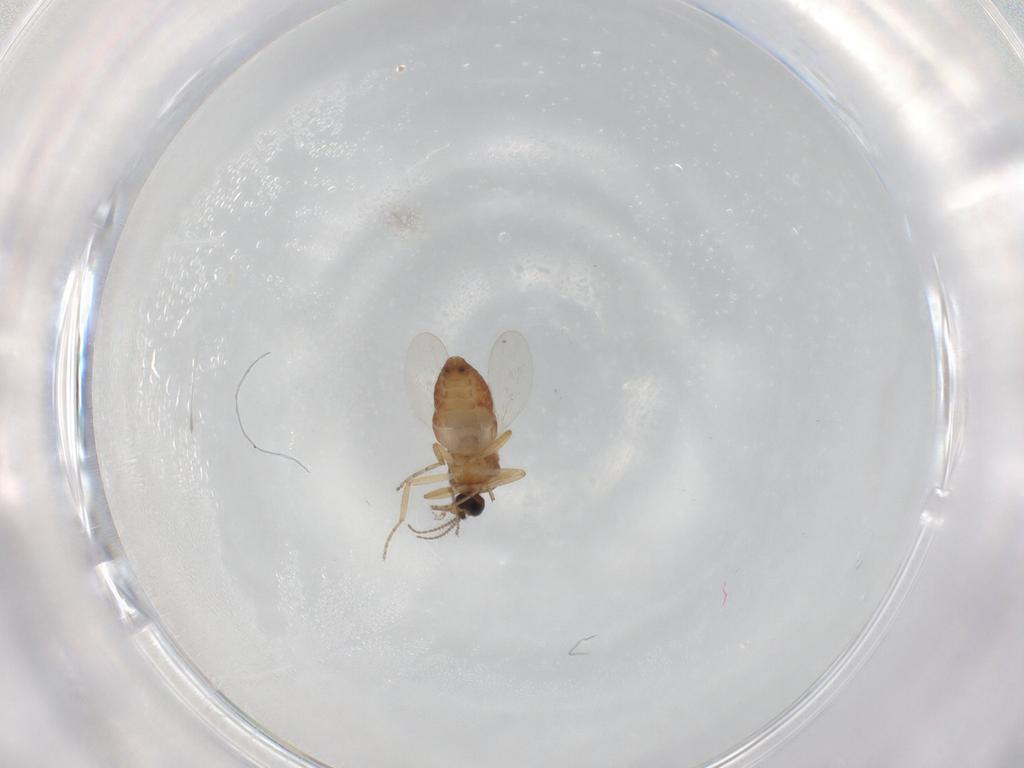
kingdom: Animalia
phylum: Arthropoda
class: Insecta
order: Diptera
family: Ceratopogonidae
